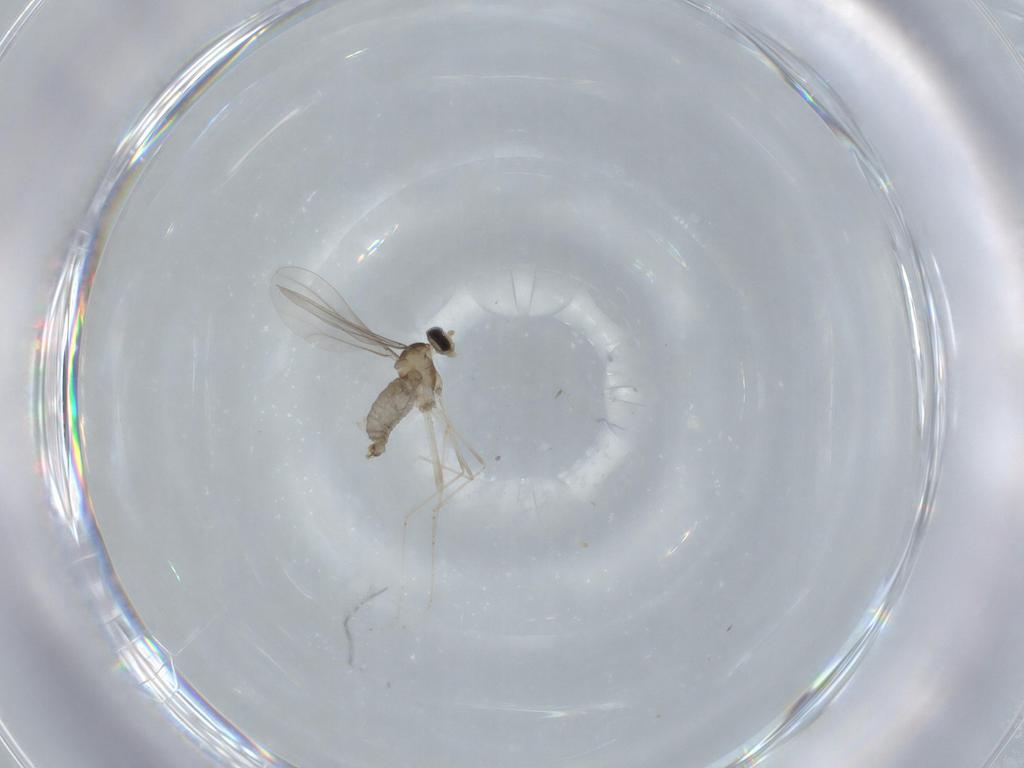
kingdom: Animalia
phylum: Arthropoda
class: Insecta
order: Diptera
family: Cecidomyiidae
